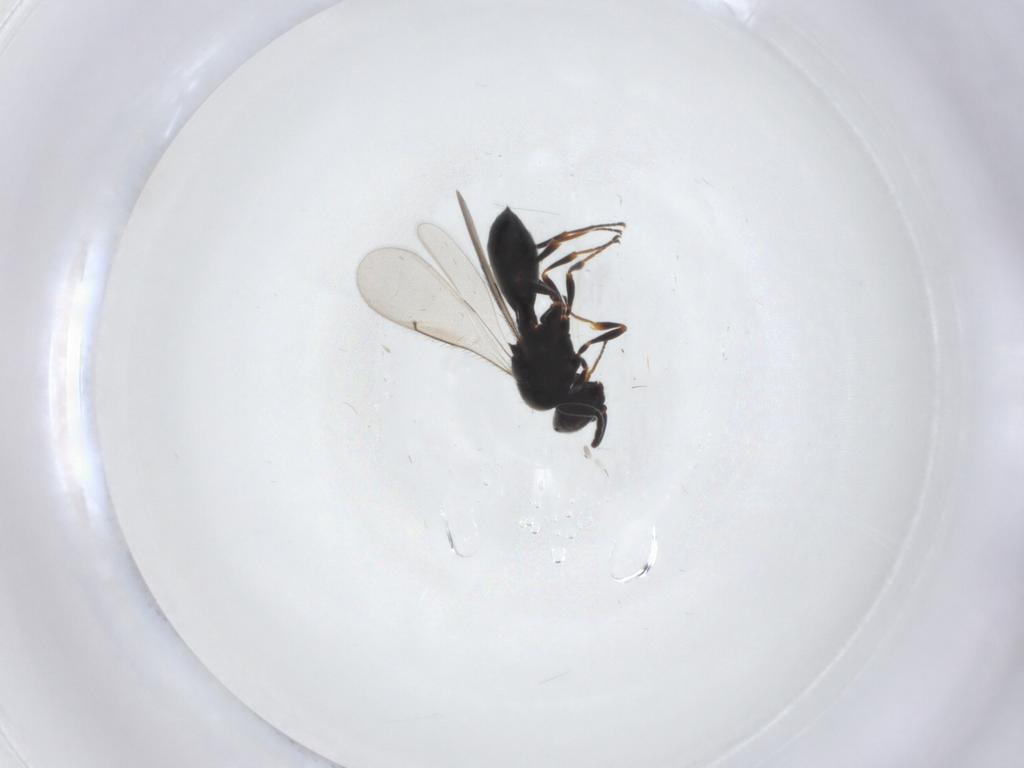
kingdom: Animalia
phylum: Arthropoda
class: Insecta
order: Hymenoptera
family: Scelionidae
